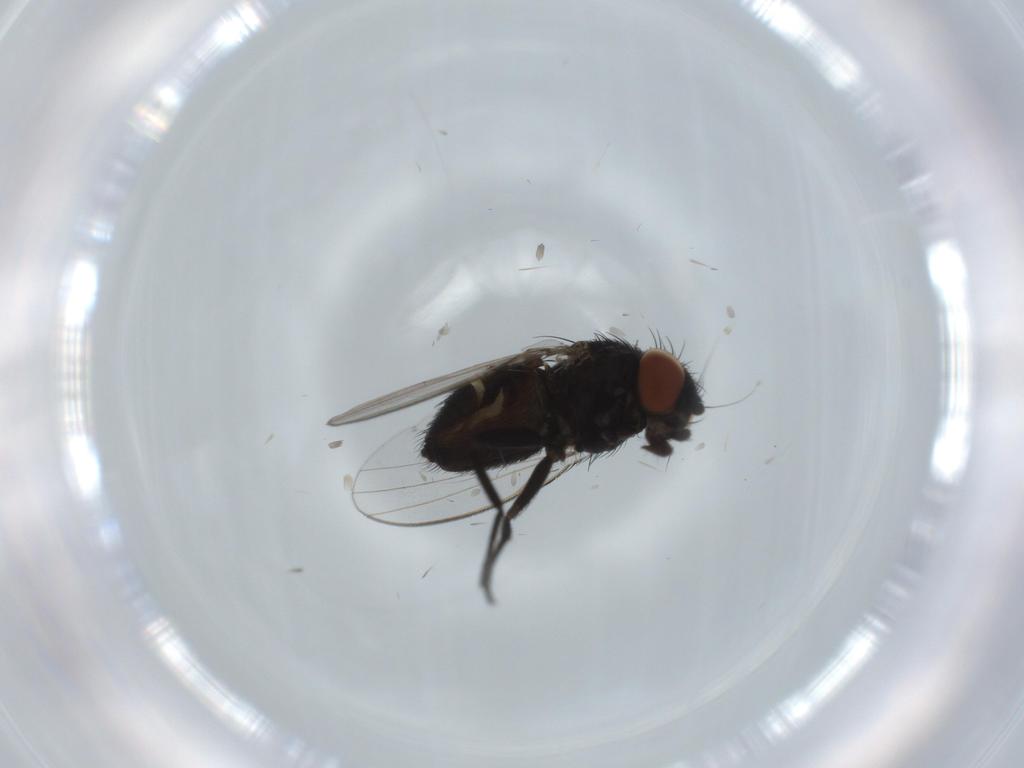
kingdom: Animalia
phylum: Arthropoda
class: Insecta
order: Diptera
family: Milichiidae
